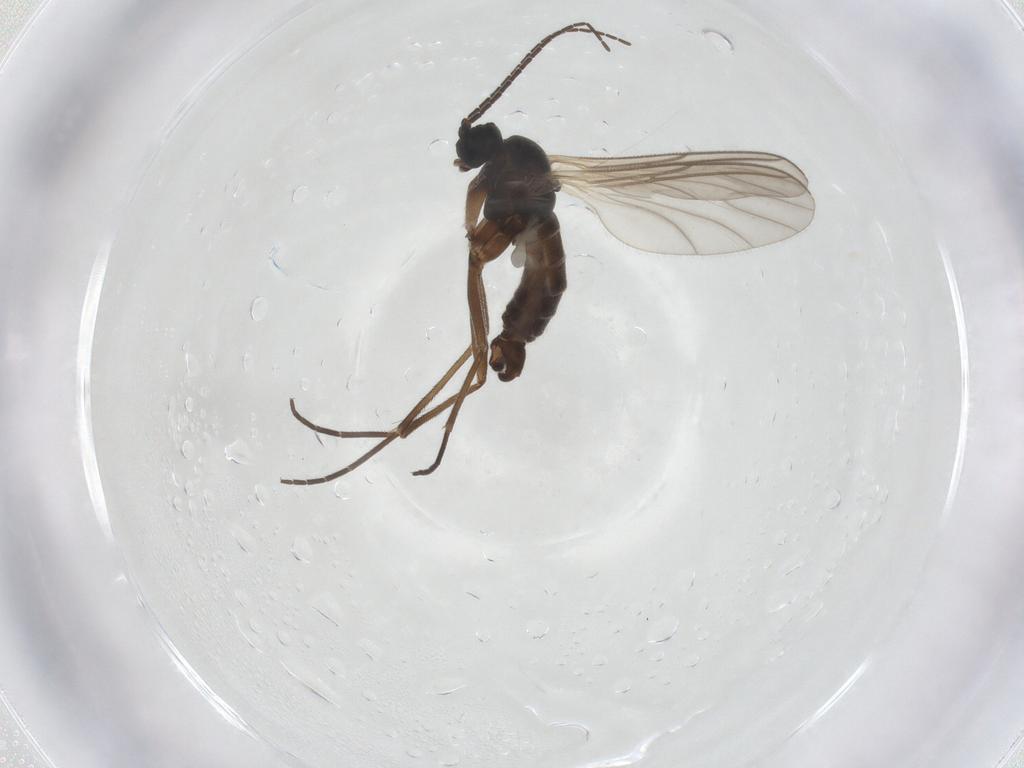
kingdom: Animalia
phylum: Arthropoda
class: Insecta
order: Diptera
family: Sciaridae
